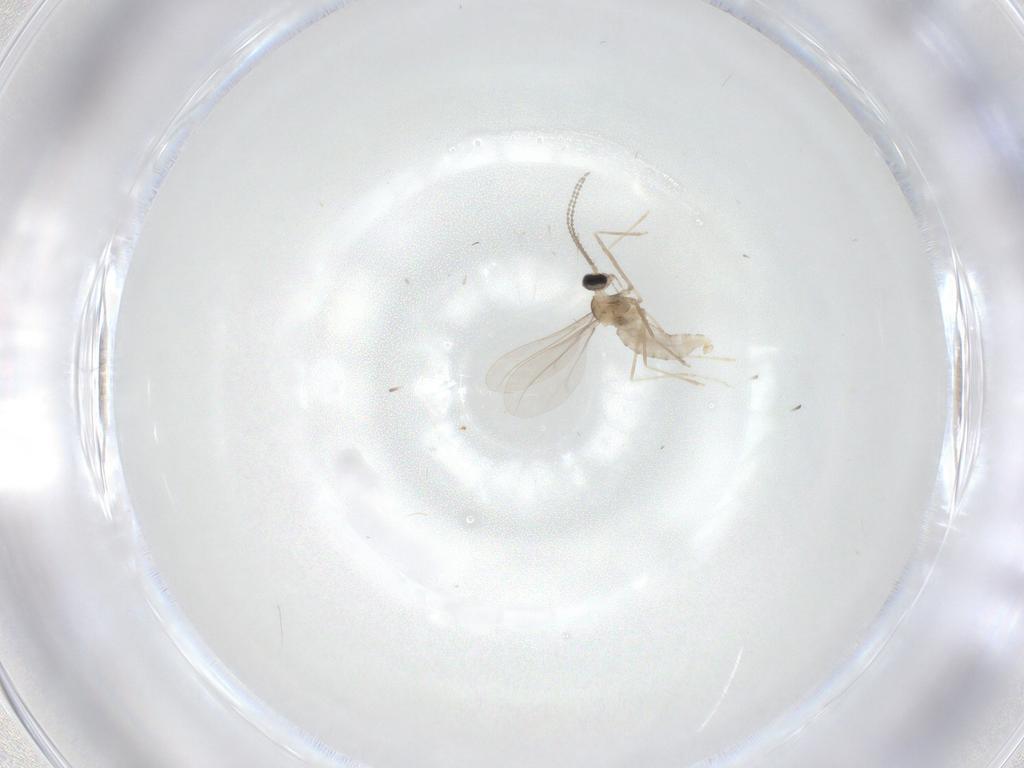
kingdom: Animalia
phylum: Arthropoda
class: Insecta
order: Diptera
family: Cecidomyiidae
